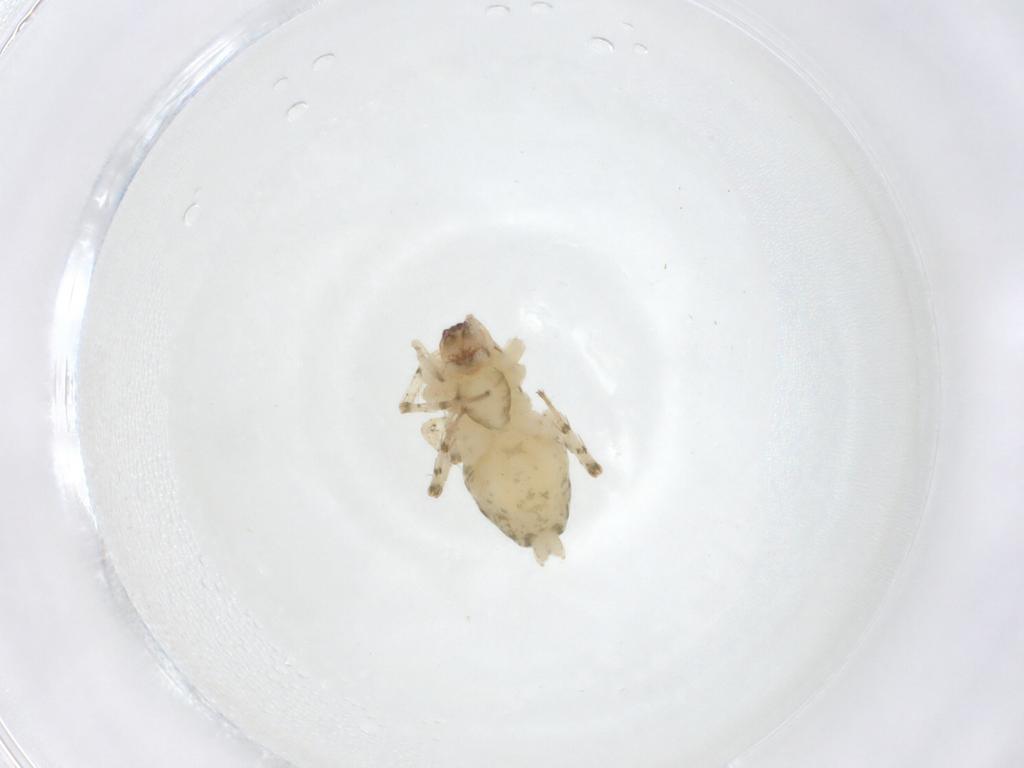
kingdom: Animalia
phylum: Arthropoda
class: Arachnida
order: Araneae
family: Anyphaenidae
